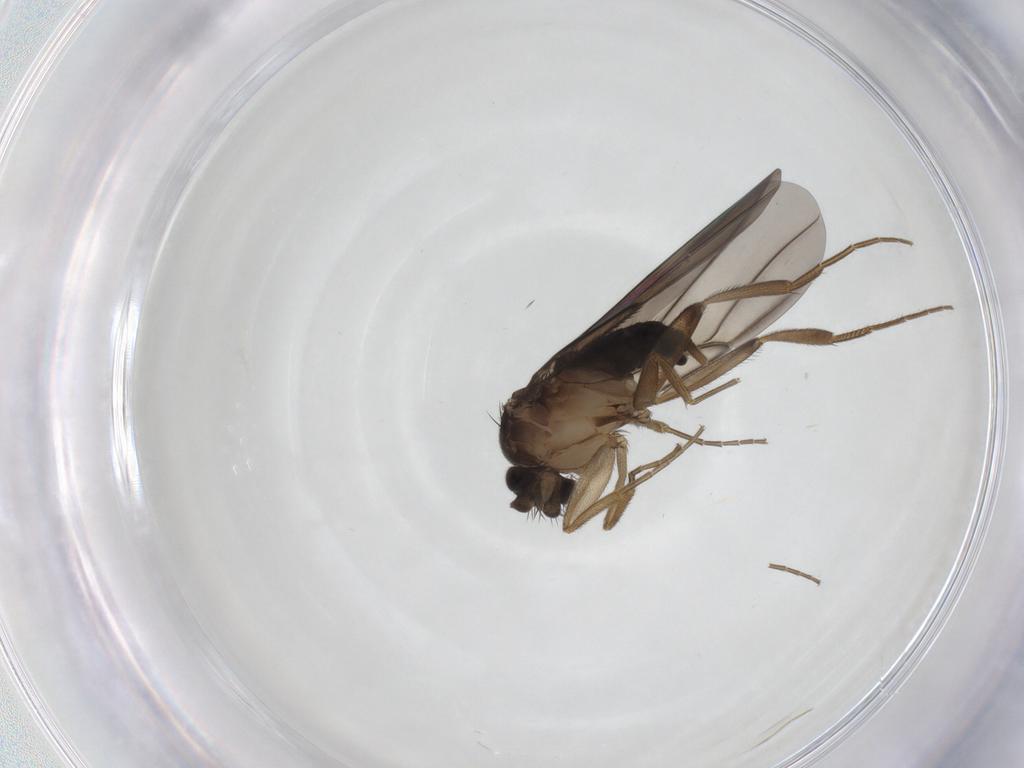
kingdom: Animalia
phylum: Arthropoda
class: Insecta
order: Diptera
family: Phoridae
